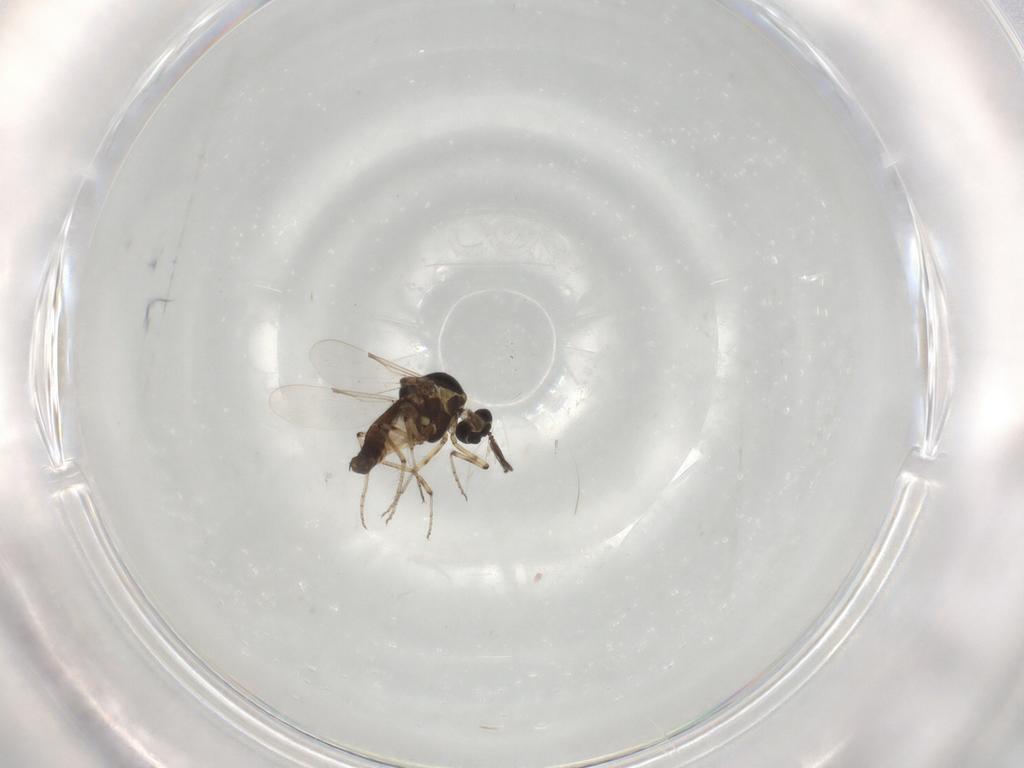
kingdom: Animalia
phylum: Arthropoda
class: Insecta
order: Diptera
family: Ceratopogonidae
